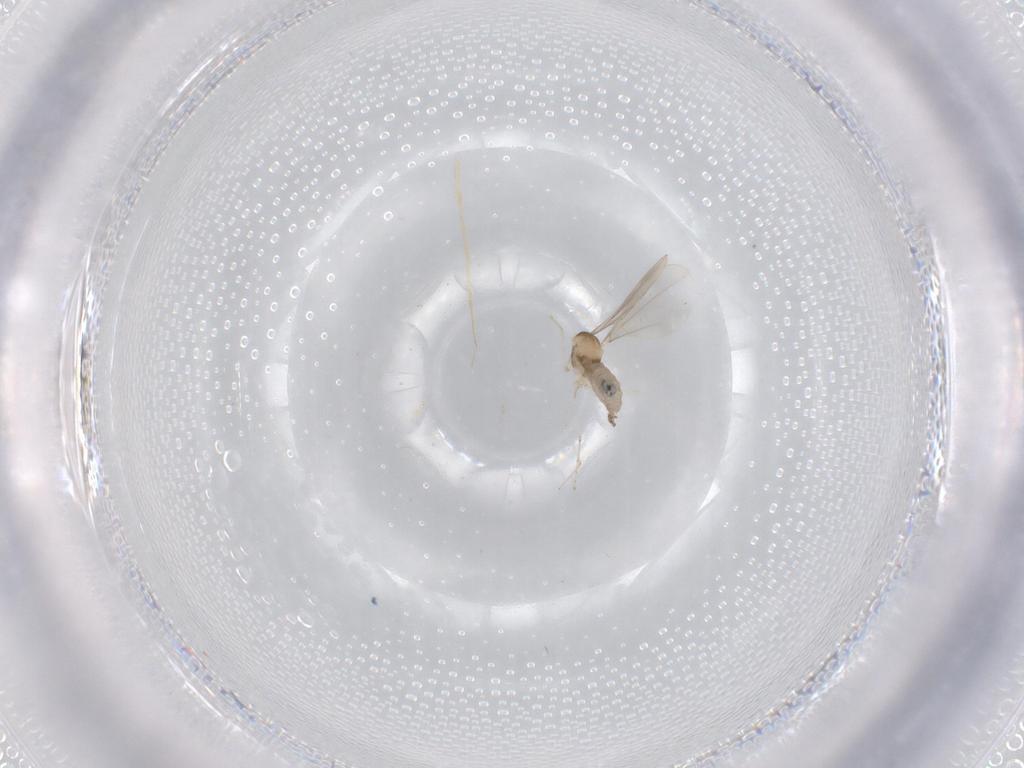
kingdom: Animalia
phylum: Arthropoda
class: Insecta
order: Diptera
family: Cecidomyiidae
